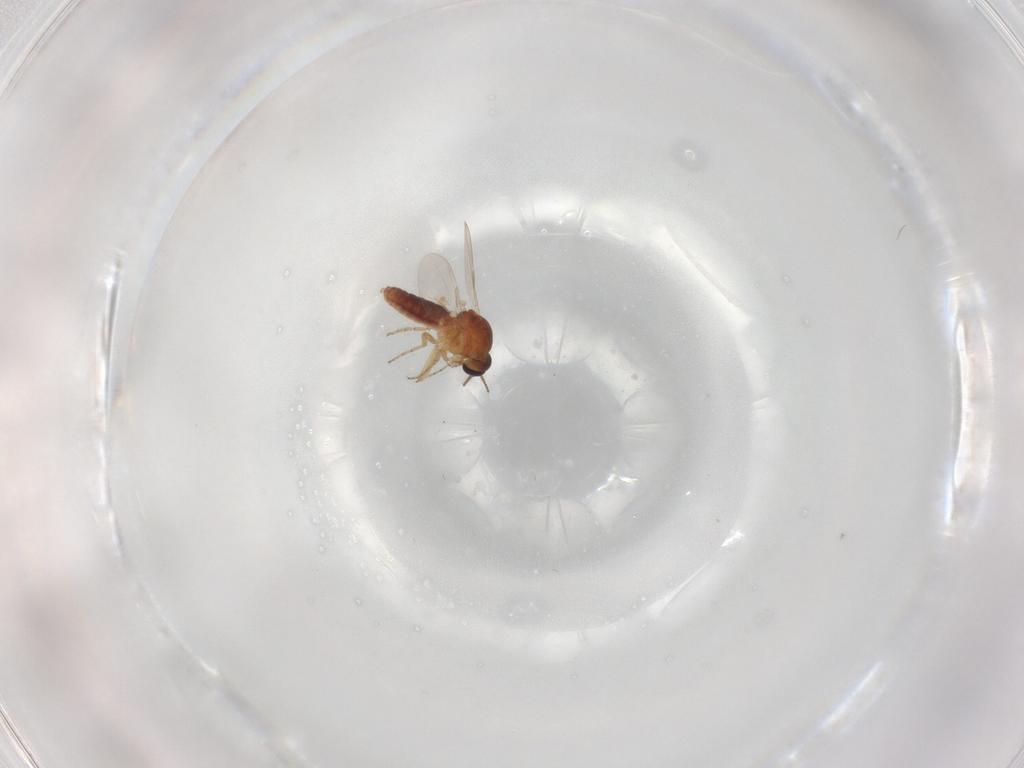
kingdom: Animalia
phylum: Arthropoda
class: Insecta
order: Diptera
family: Ceratopogonidae
